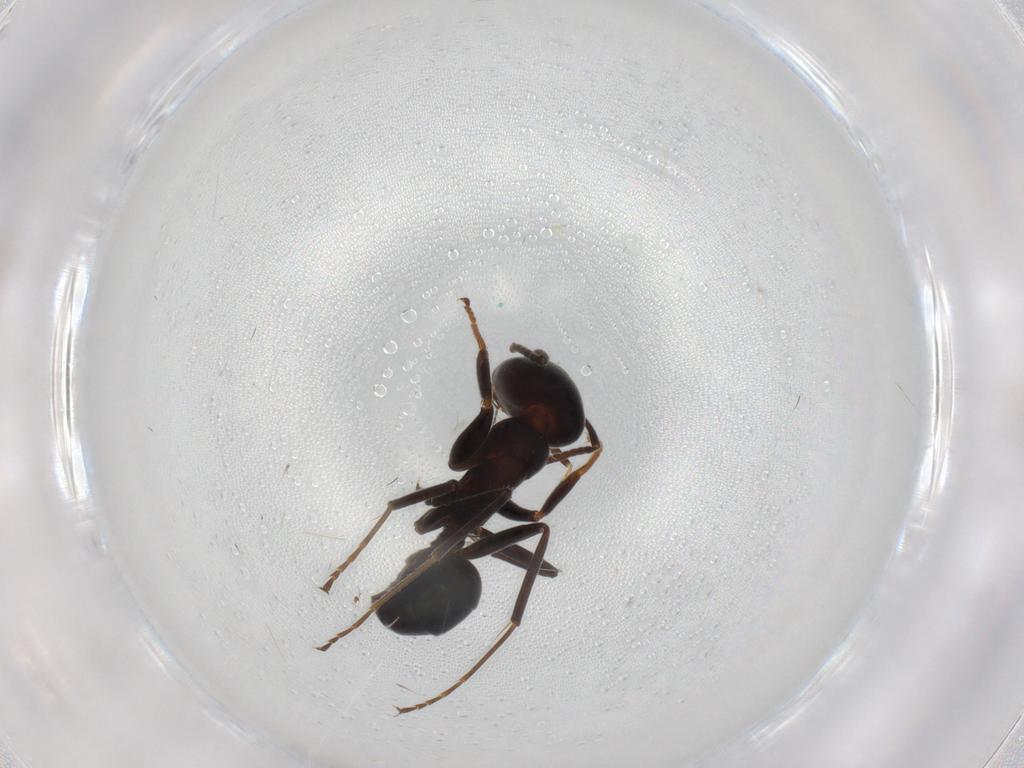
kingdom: Animalia
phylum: Arthropoda
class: Insecta
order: Hymenoptera
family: Formicidae
